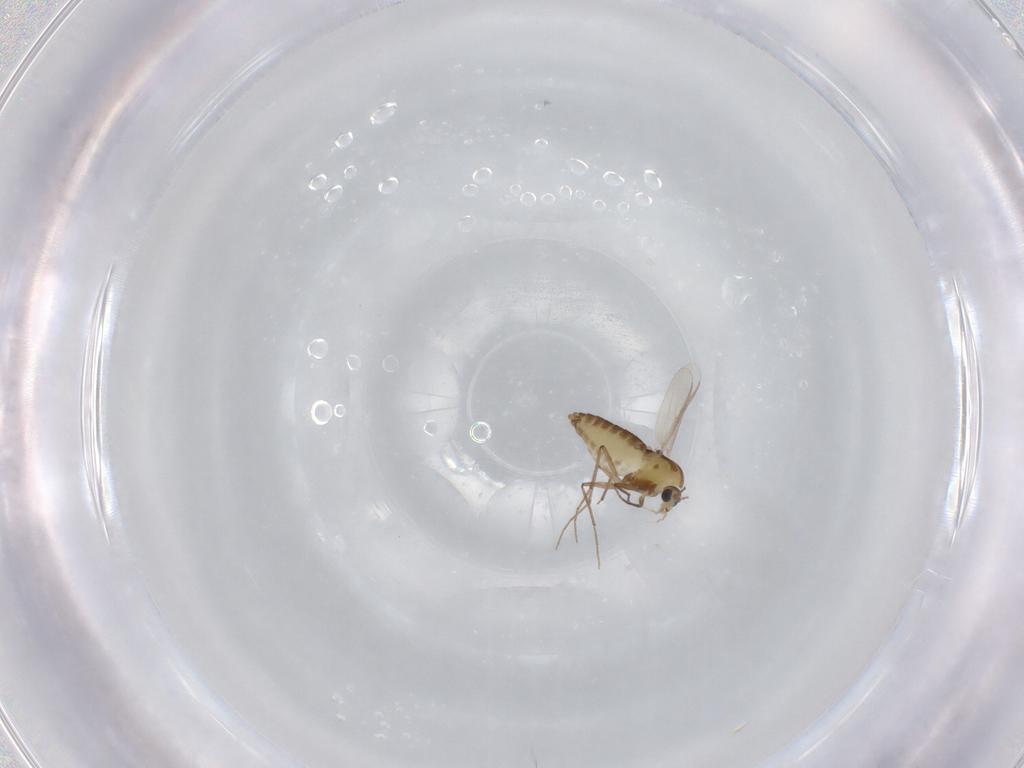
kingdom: Animalia
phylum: Arthropoda
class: Insecta
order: Diptera
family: Chironomidae
